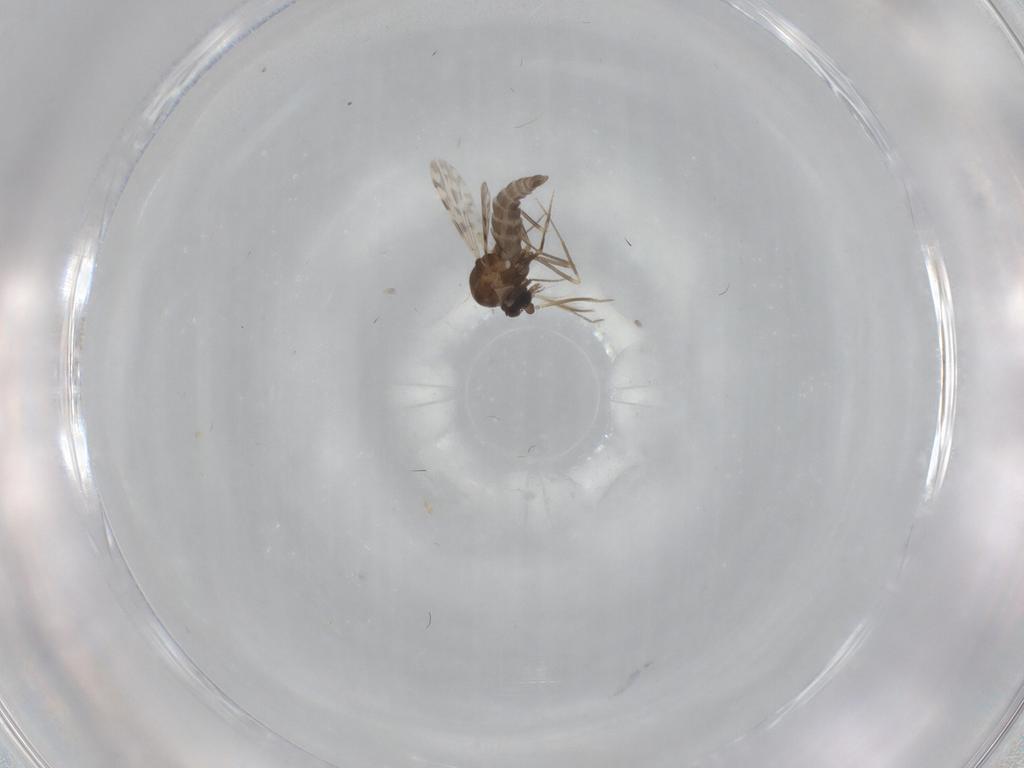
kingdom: Animalia
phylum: Arthropoda
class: Insecta
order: Diptera
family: Ceratopogonidae
